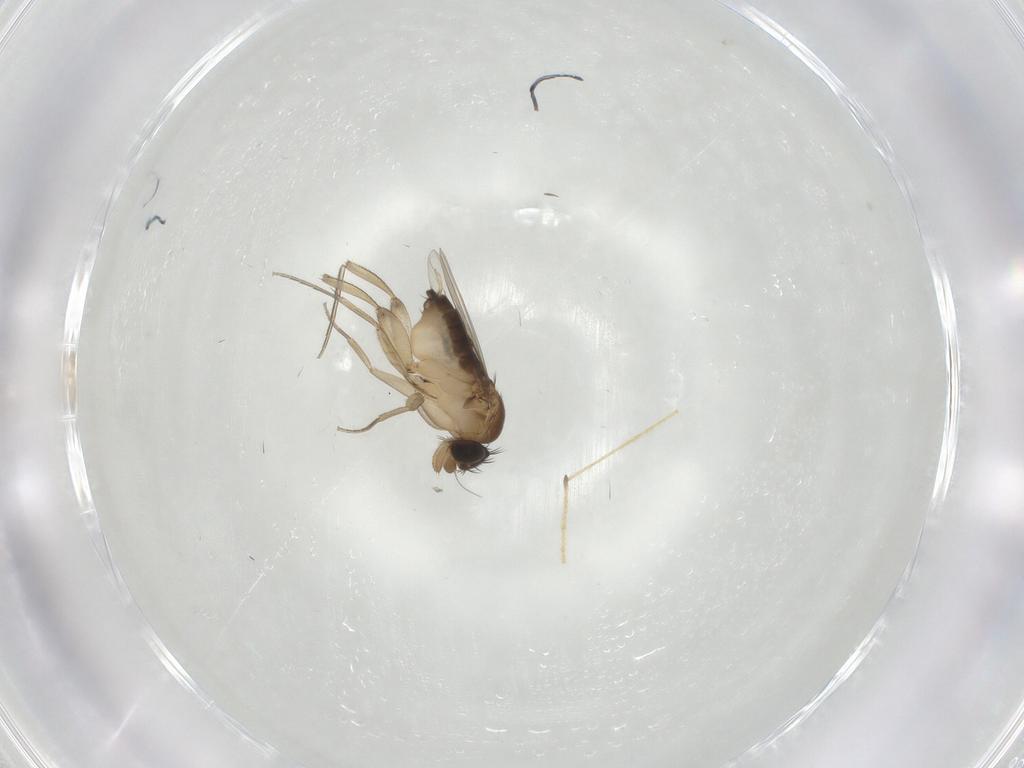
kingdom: Animalia
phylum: Arthropoda
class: Insecta
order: Diptera
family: Limoniidae
